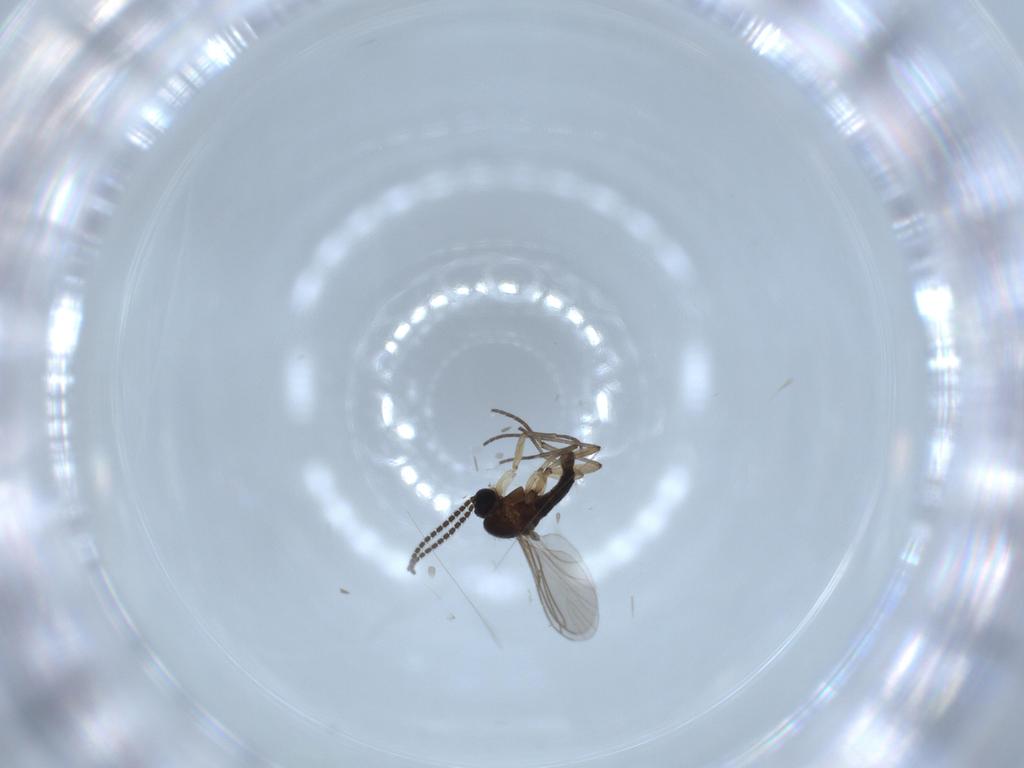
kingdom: Animalia
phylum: Arthropoda
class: Insecta
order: Diptera
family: Sciaridae
